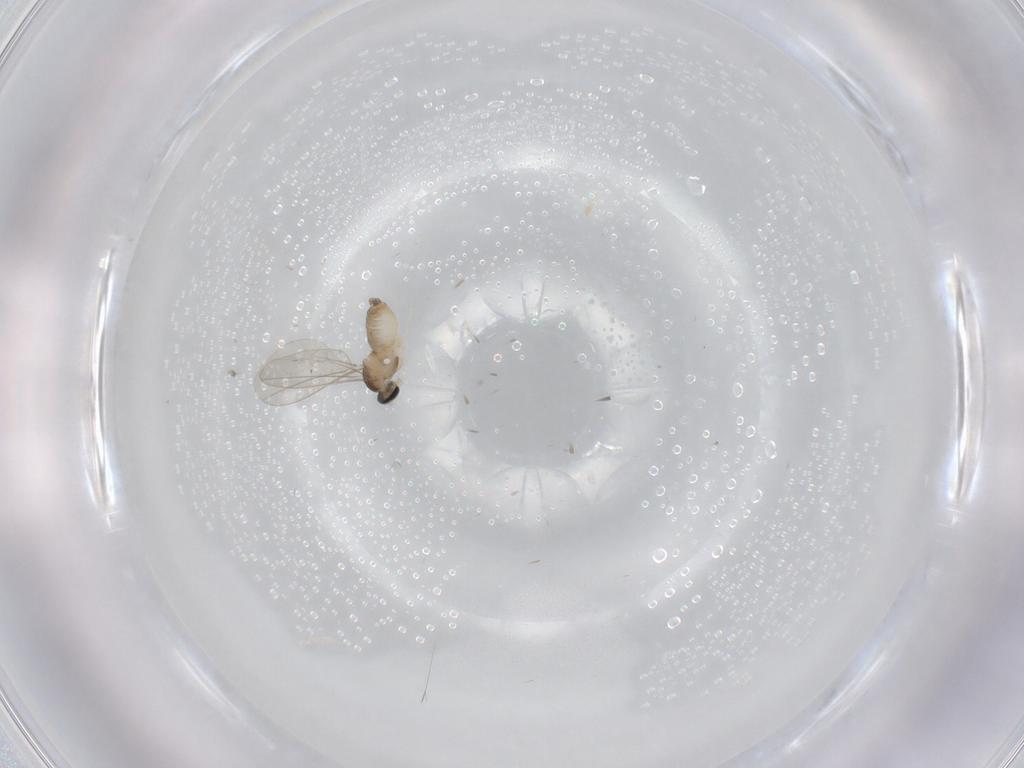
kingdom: Animalia
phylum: Arthropoda
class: Insecta
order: Diptera
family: Cecidomyiidae
